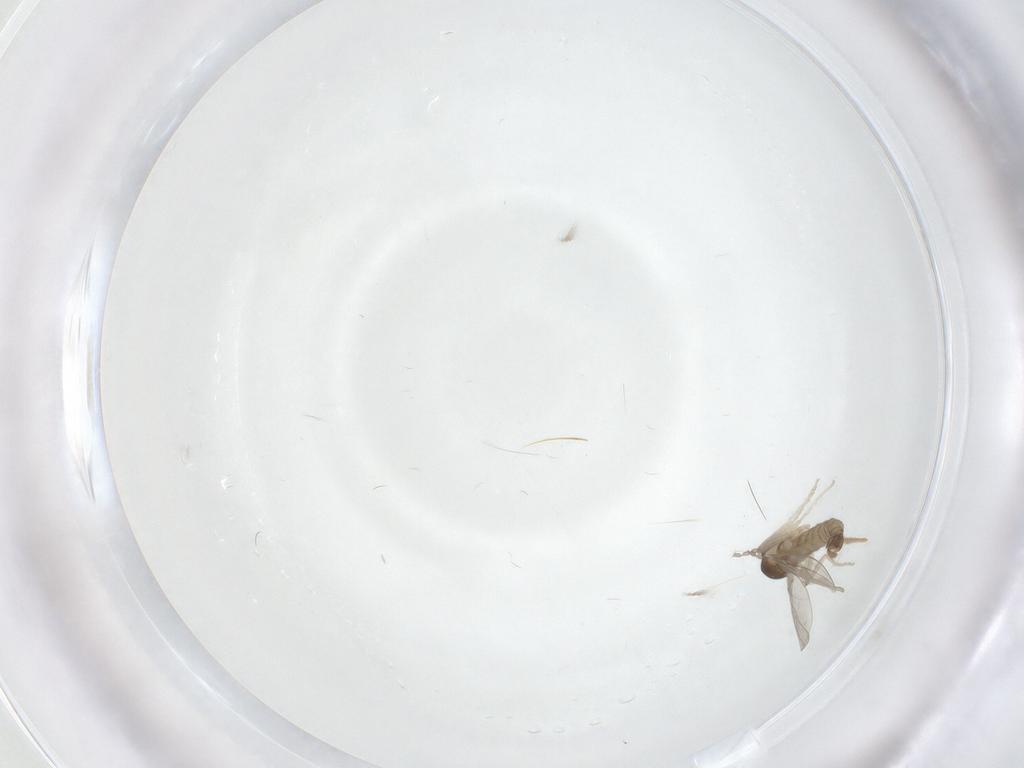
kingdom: Animalia
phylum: Arthropoda
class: Insecta
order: Diptera
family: Cecidomyiidae
